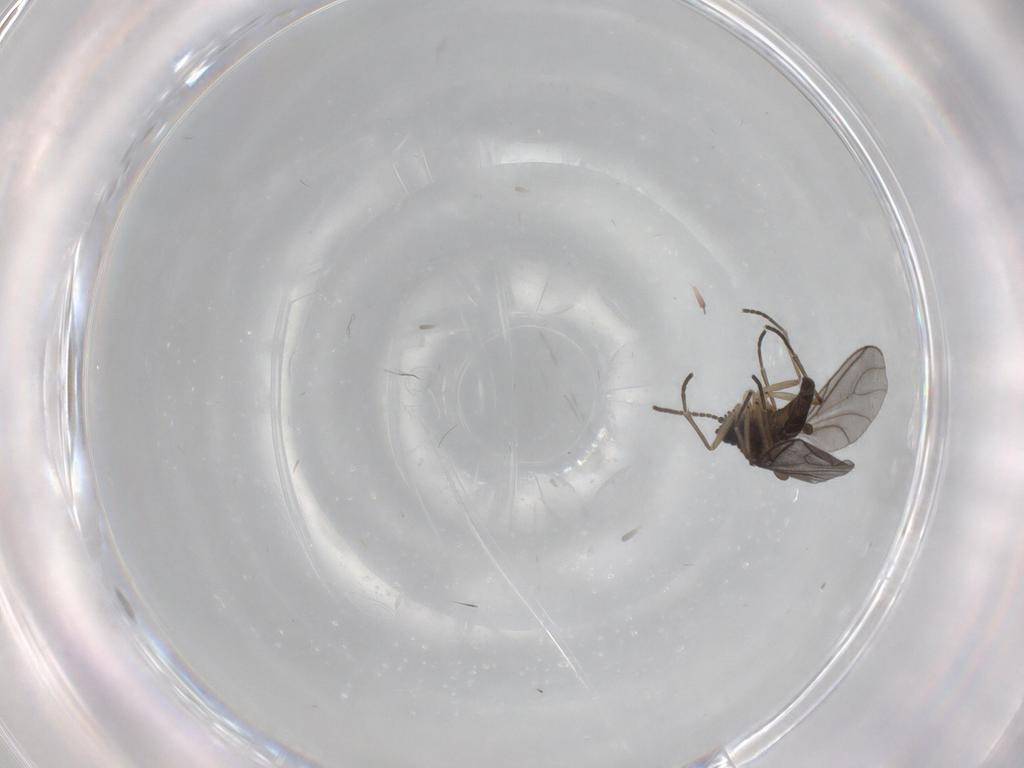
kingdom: Animalia
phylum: Arthropoda
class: Insecta
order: Diptera
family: Sciaridae
